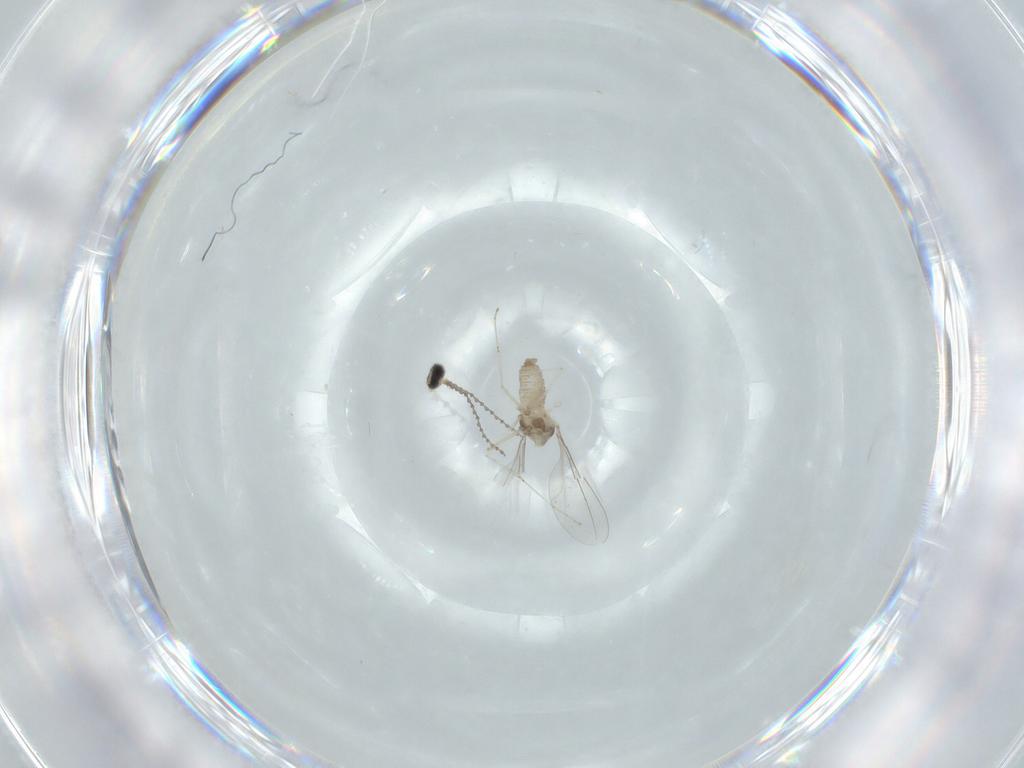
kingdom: Animalia
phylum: Arthropoda
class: Insecta
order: Diptera
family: Cecidomyiidae
